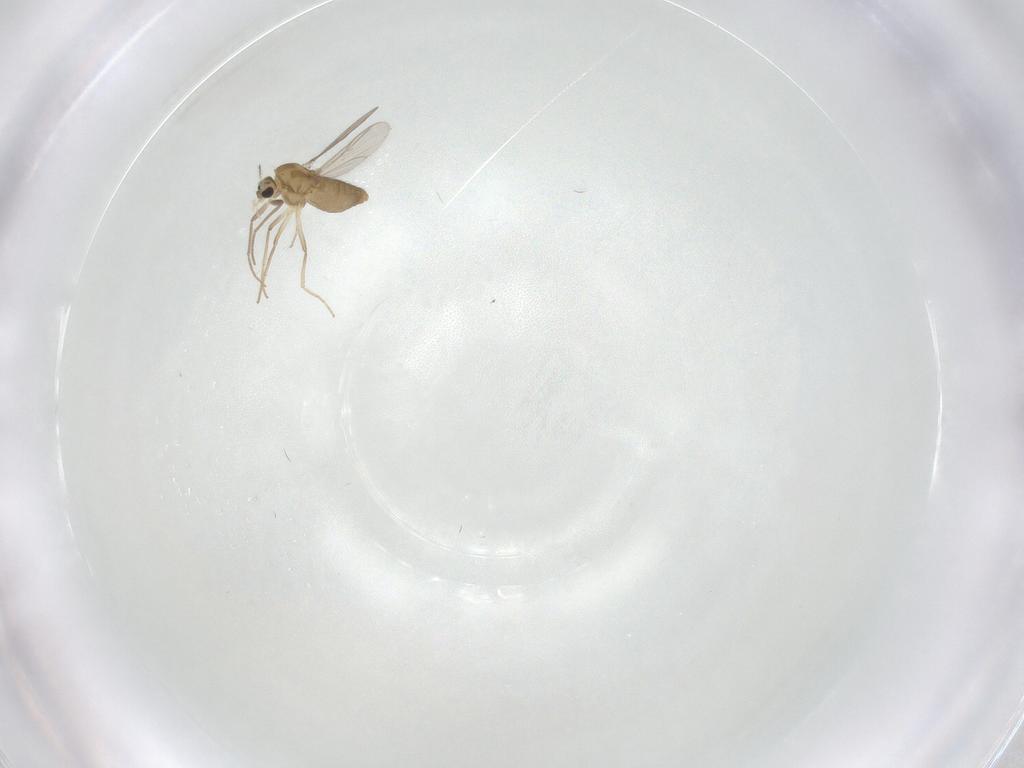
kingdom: Animalia
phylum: Arthropoda
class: Insecta
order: Diptera
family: Chironomidae
